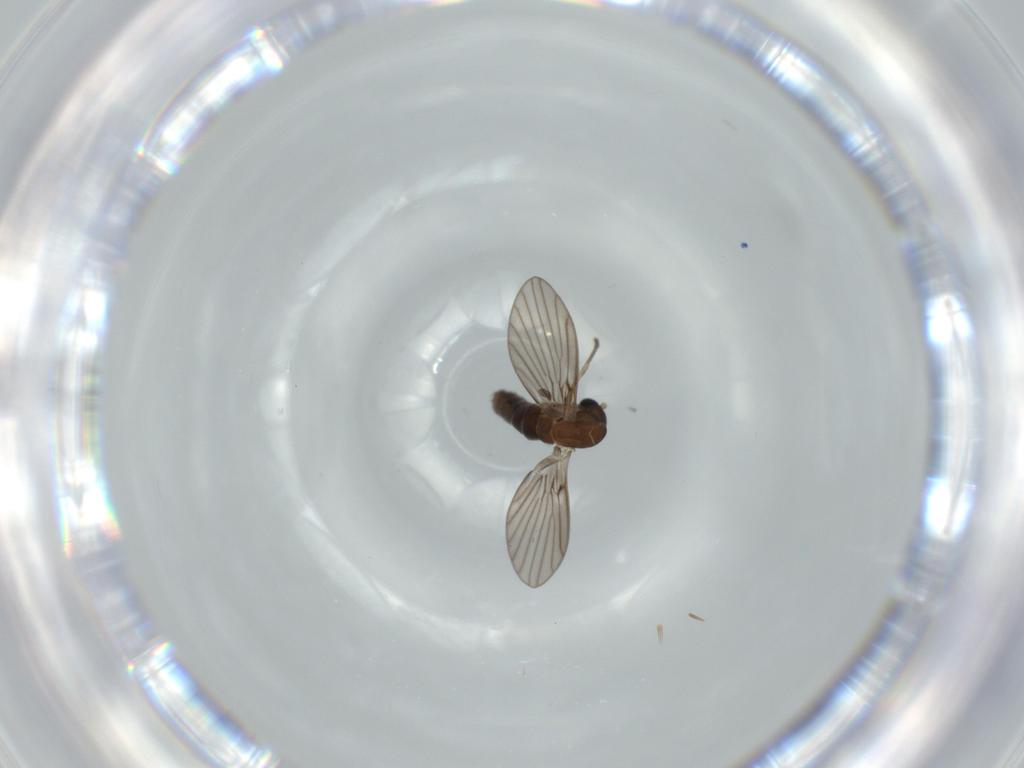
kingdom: Animalia
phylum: Arthropoda
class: Insecta
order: Diptera
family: Psychodidae
